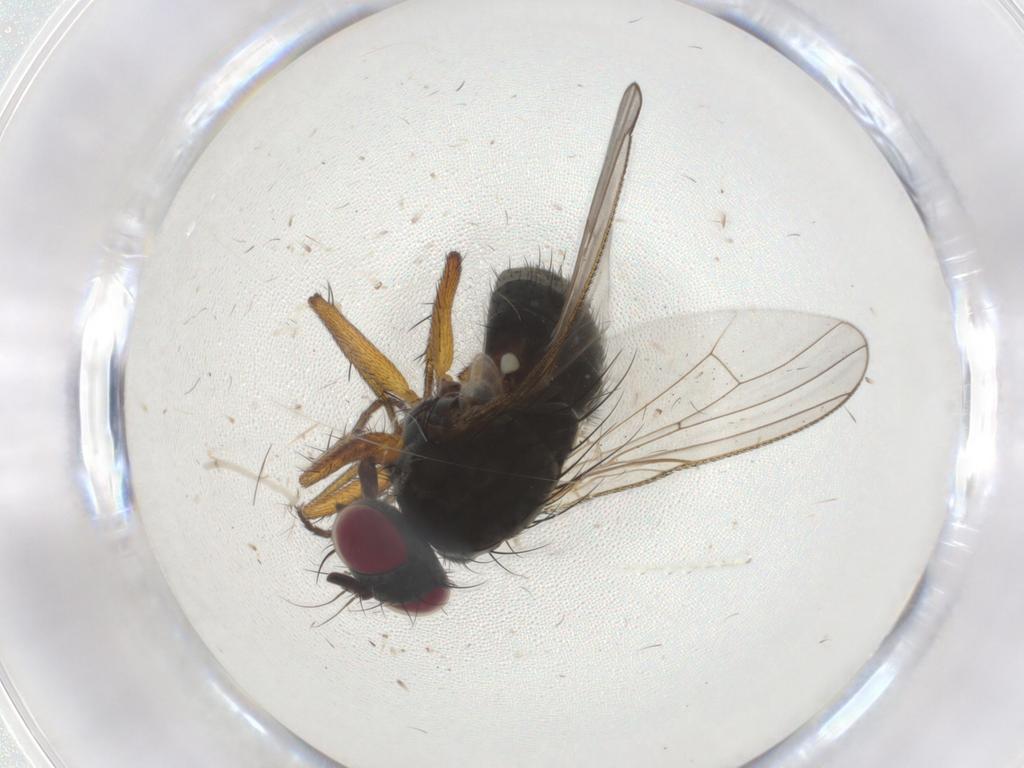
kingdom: Animalia
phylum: Arthropoda
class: Insecta
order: Diptera
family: Muscidae
